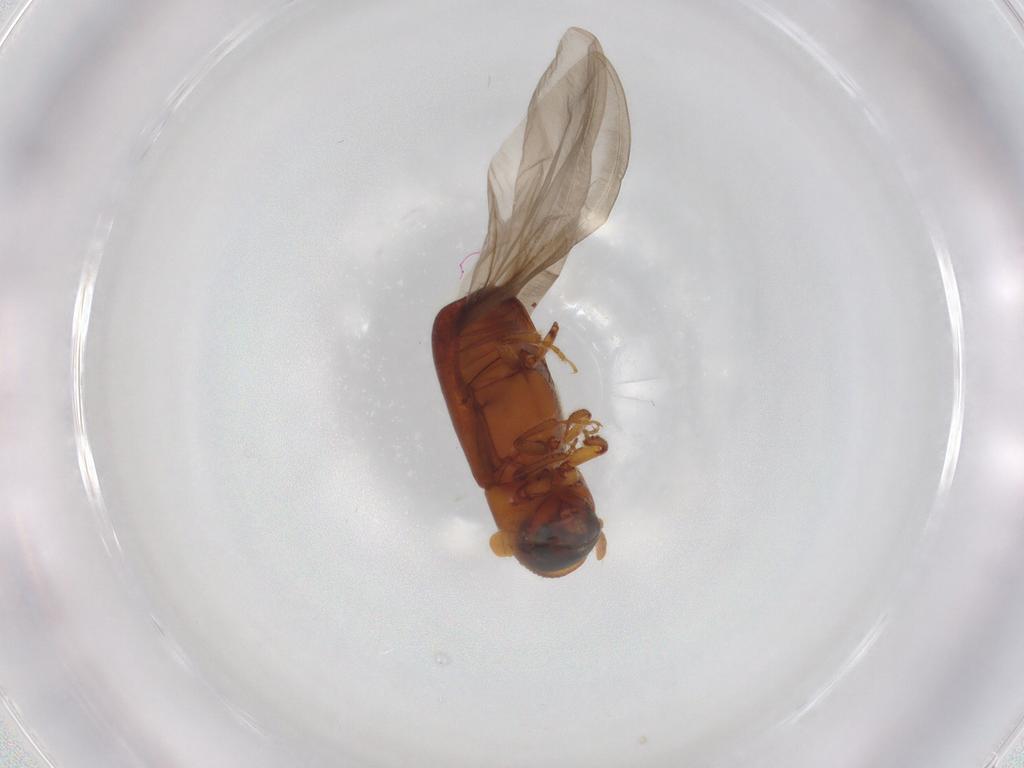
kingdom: Animalia
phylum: Arthropoda
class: Insecta
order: Coleoptera
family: Curculionidae
